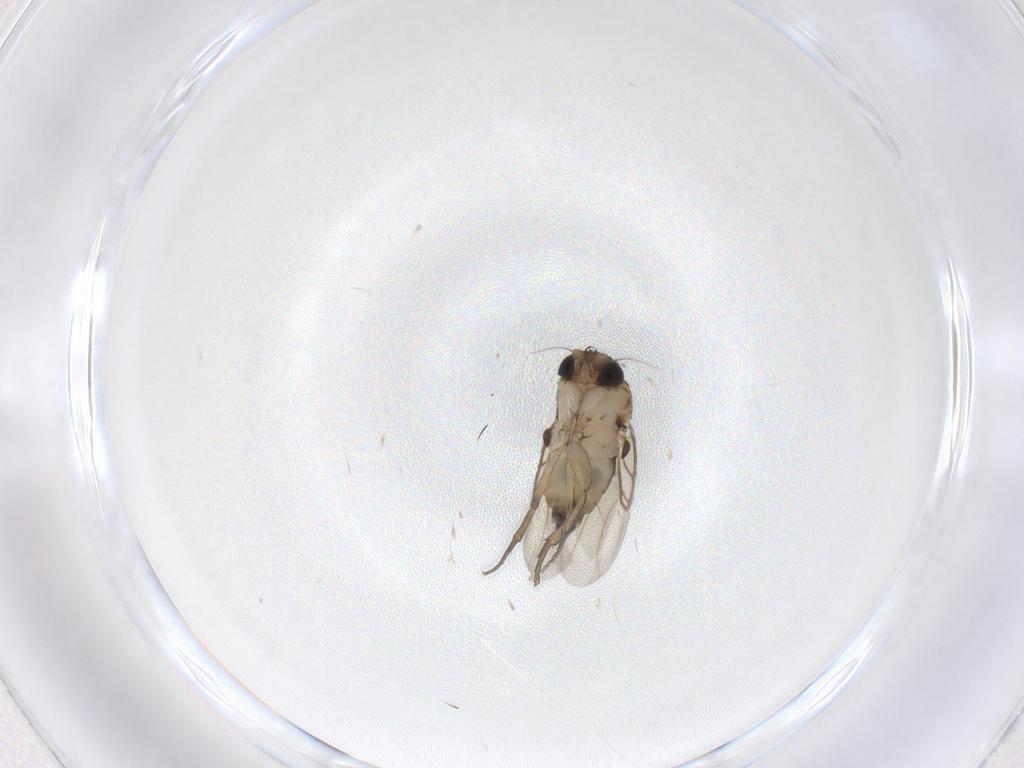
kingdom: Animalia
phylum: Arthropoda
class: Insecta
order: Diptera
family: Phoridae
